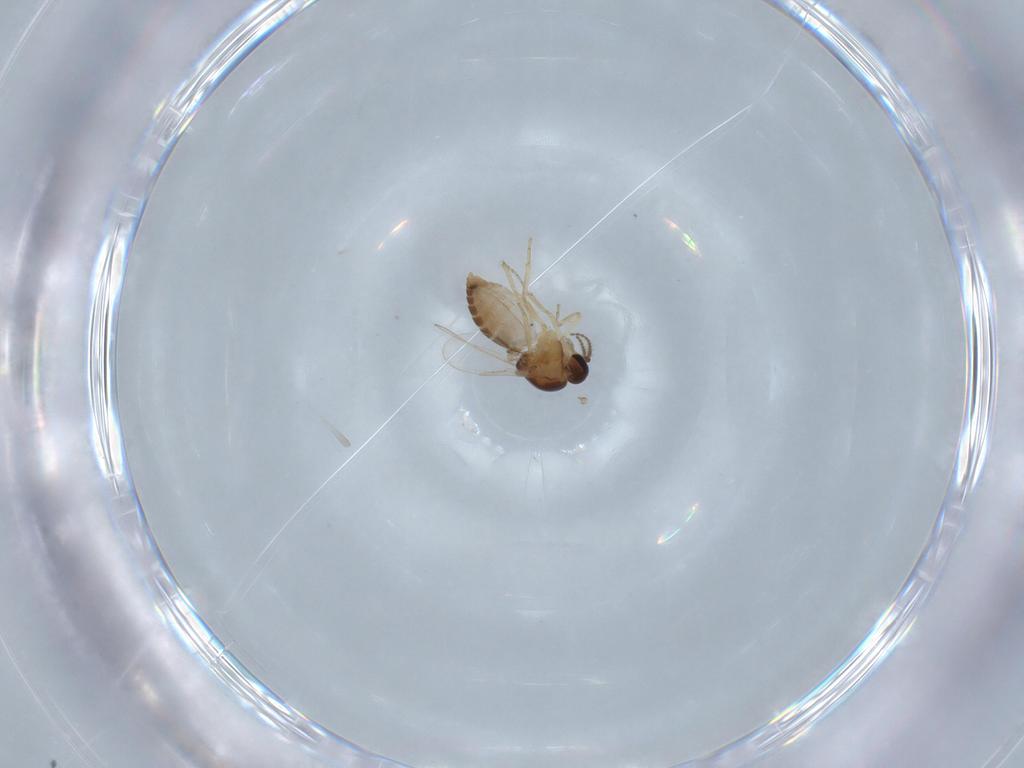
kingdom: Animalia
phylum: Arthropoda
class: Insecta
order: Diptera
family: Ceratopogonidae
